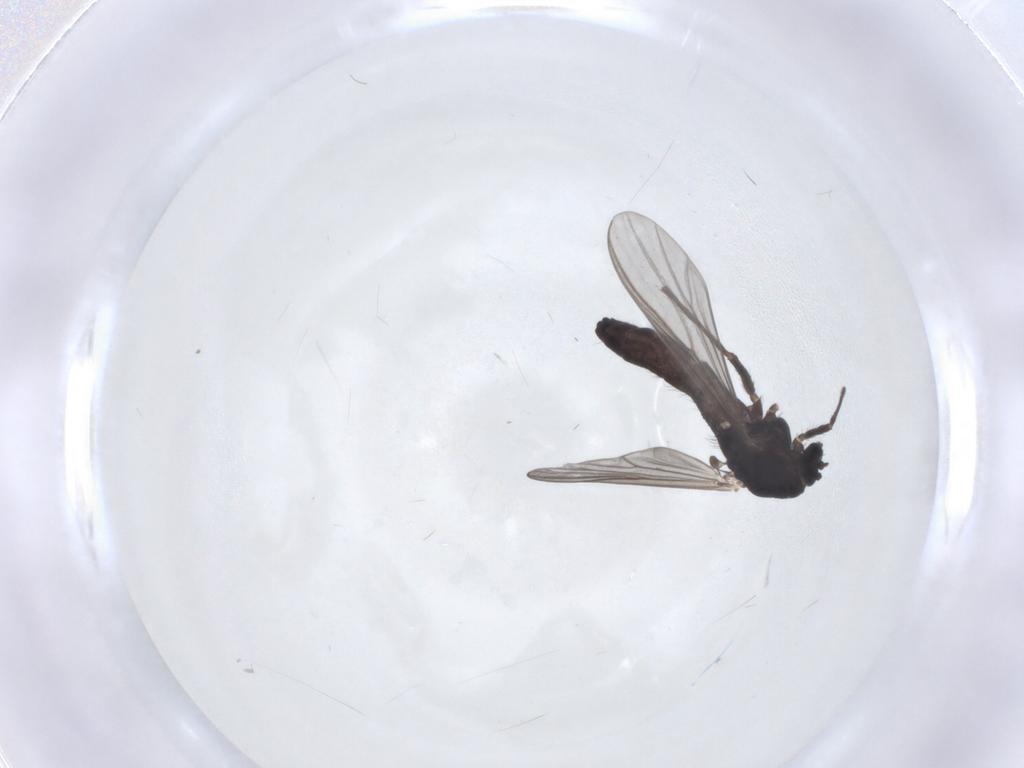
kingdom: Animalia
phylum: Arthropoda
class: Insecta
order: Diptera
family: Chironomidae
